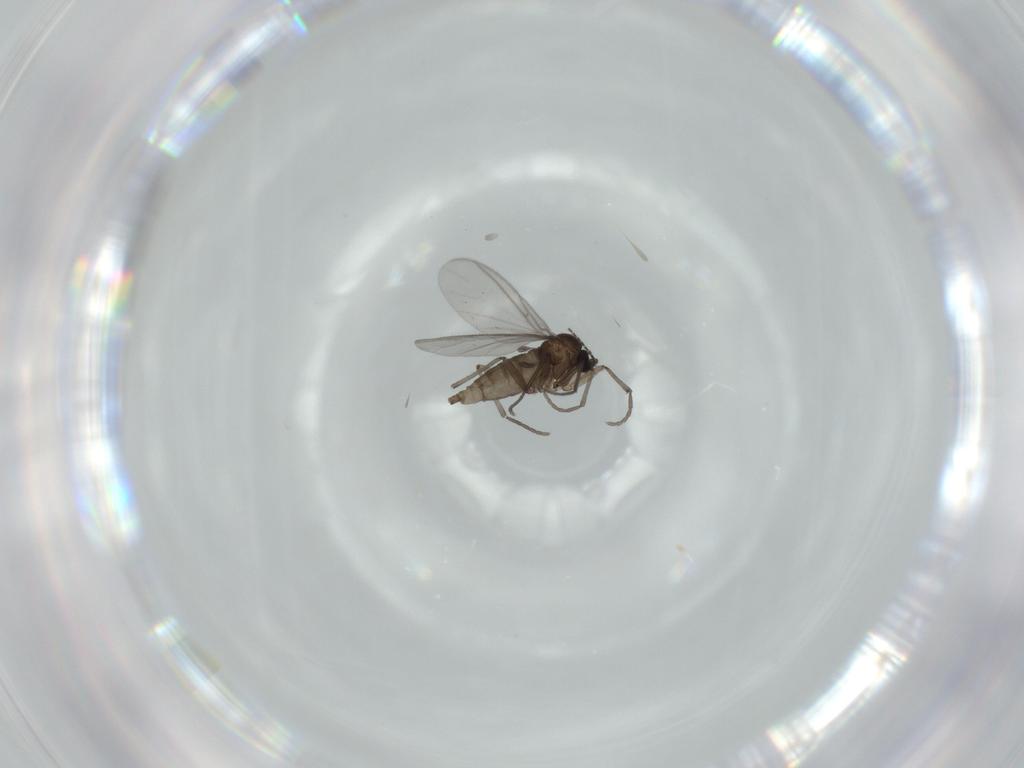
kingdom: Animalia
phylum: Arthropoda
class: Insecta
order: Diptera
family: Sciaridae
